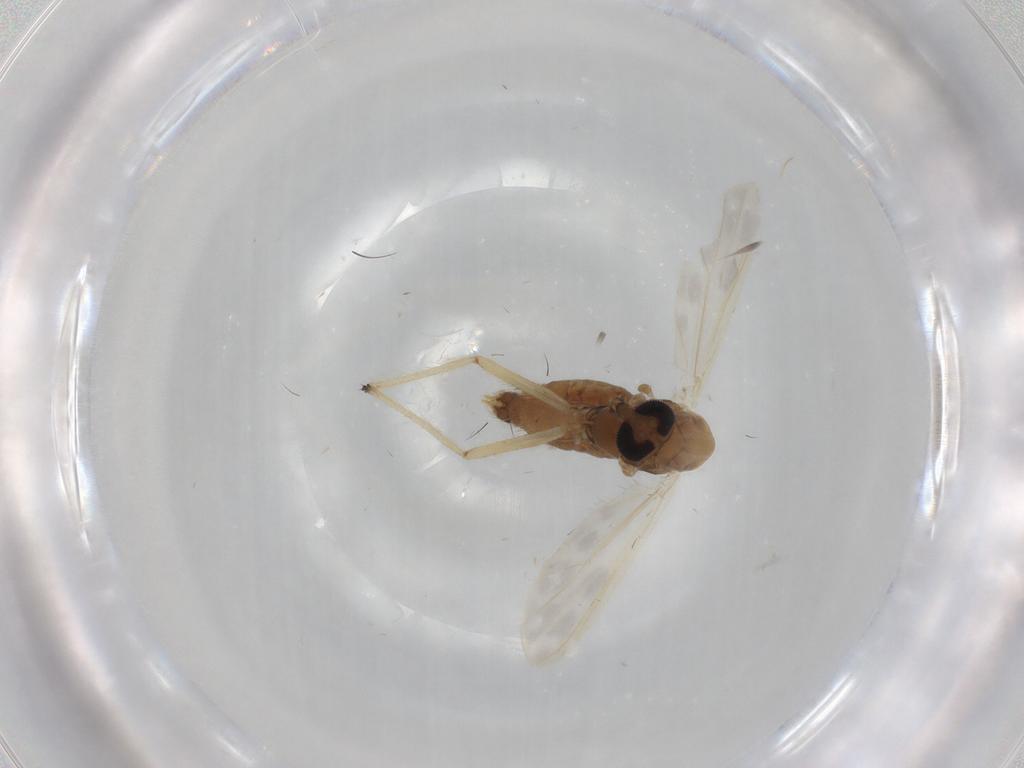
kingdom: Animalia
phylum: Arthropoda
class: Insecta
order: Diptera
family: Chironomidae
